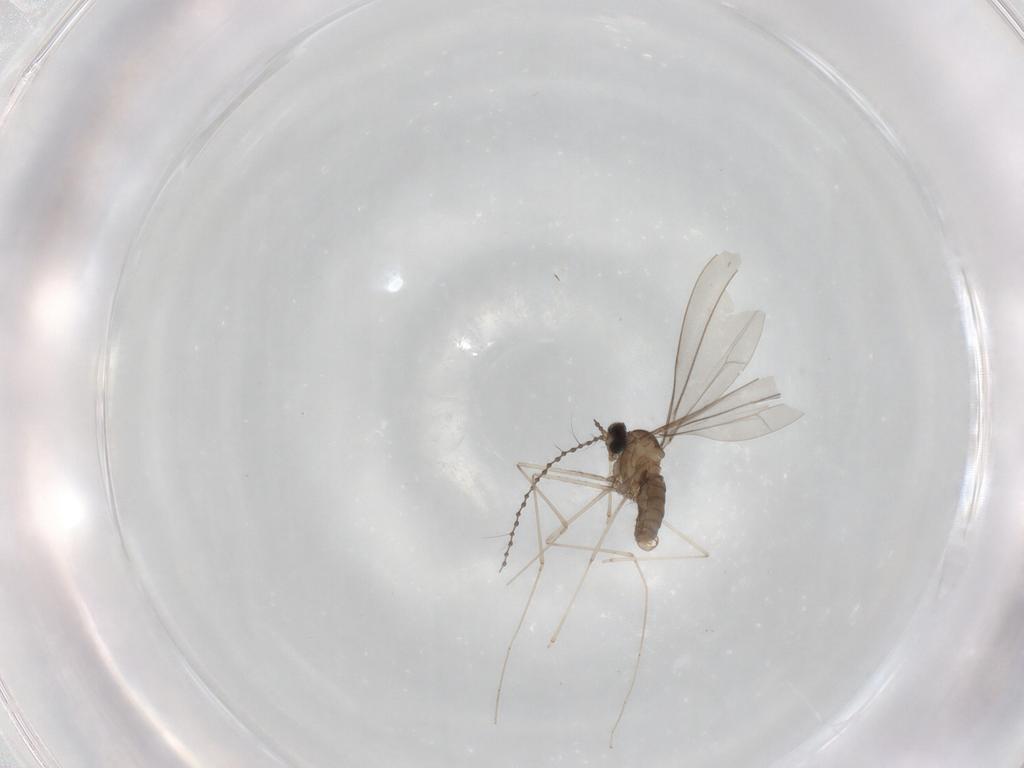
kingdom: Animalia
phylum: Arthropoda
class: Insecta
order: Diptera
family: Cecidomyiidae
